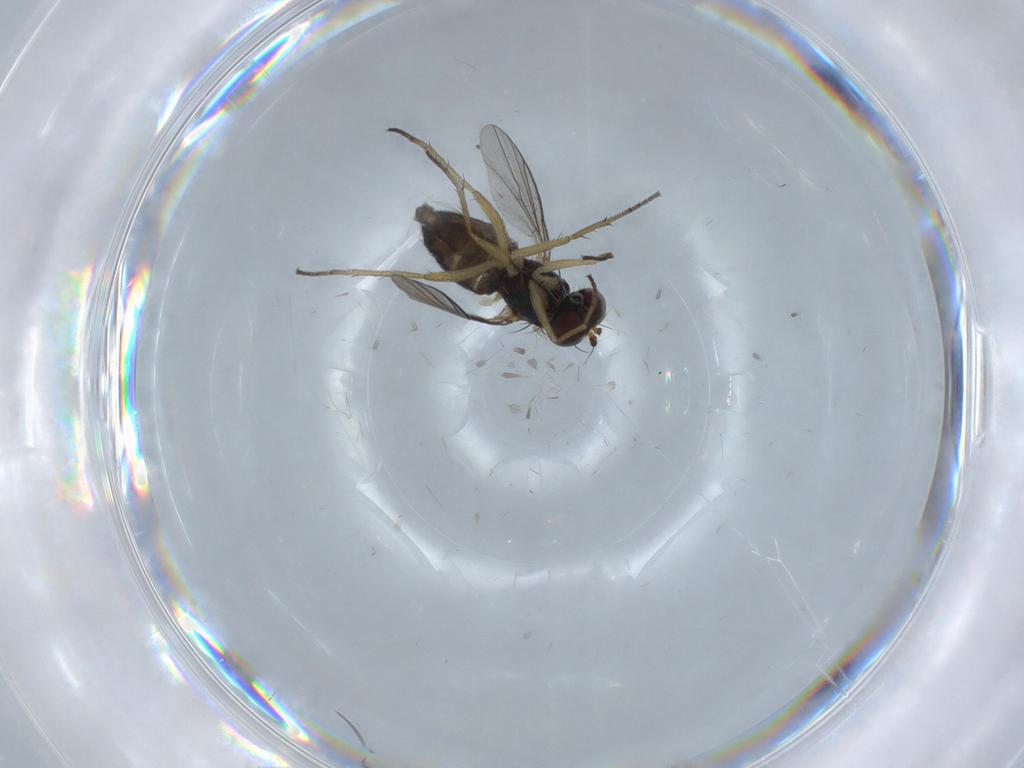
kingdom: Animalia
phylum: Arthropoda
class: Insecta
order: Diptera
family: Dolichopodidae
